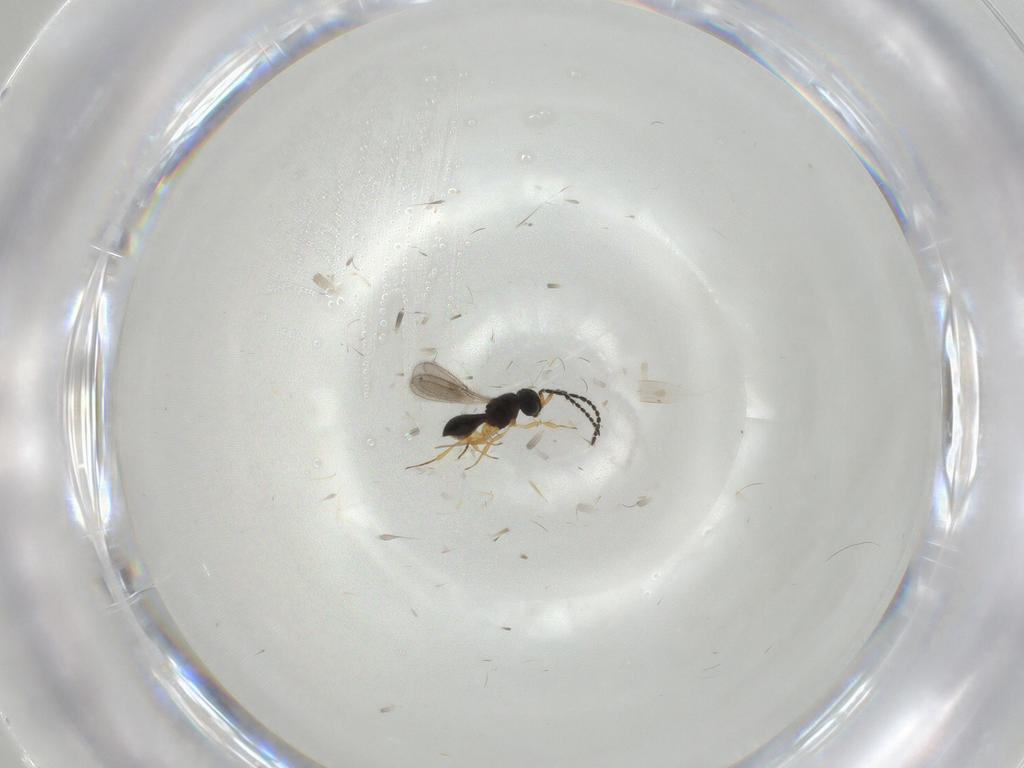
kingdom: Animalia
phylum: Arthropoda
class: Insecta
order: Hymenoptera
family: Scelionidae
